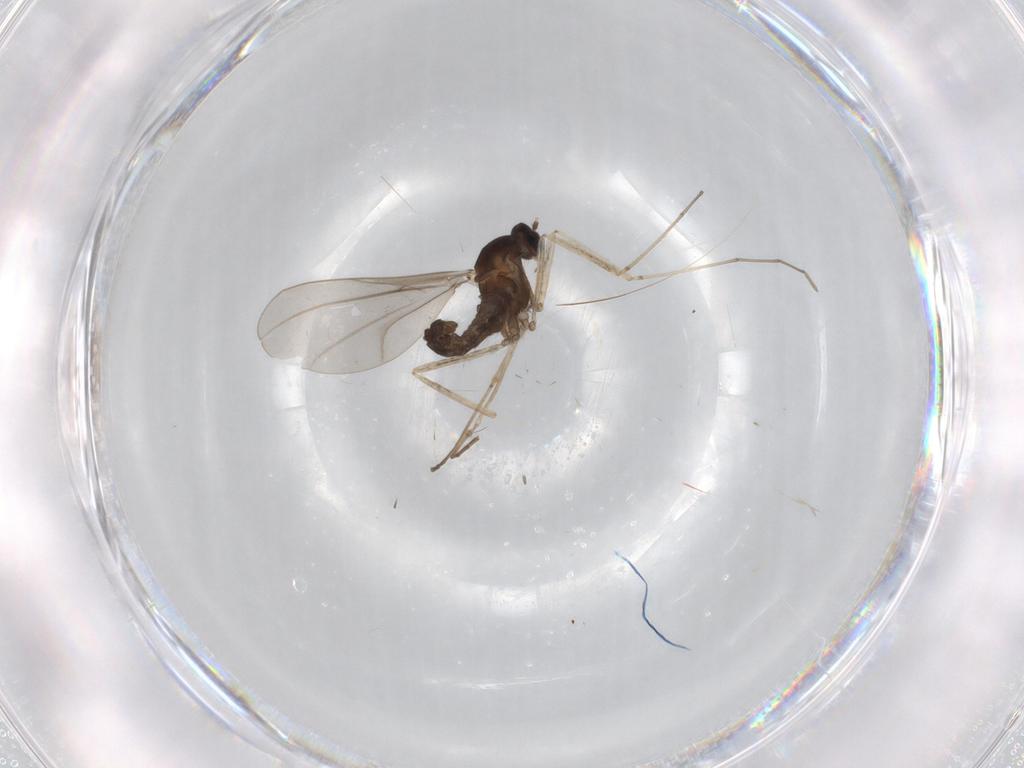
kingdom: Animalia
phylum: Arthropoda
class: Insecta
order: Diptera
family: Cecidomyiidae
